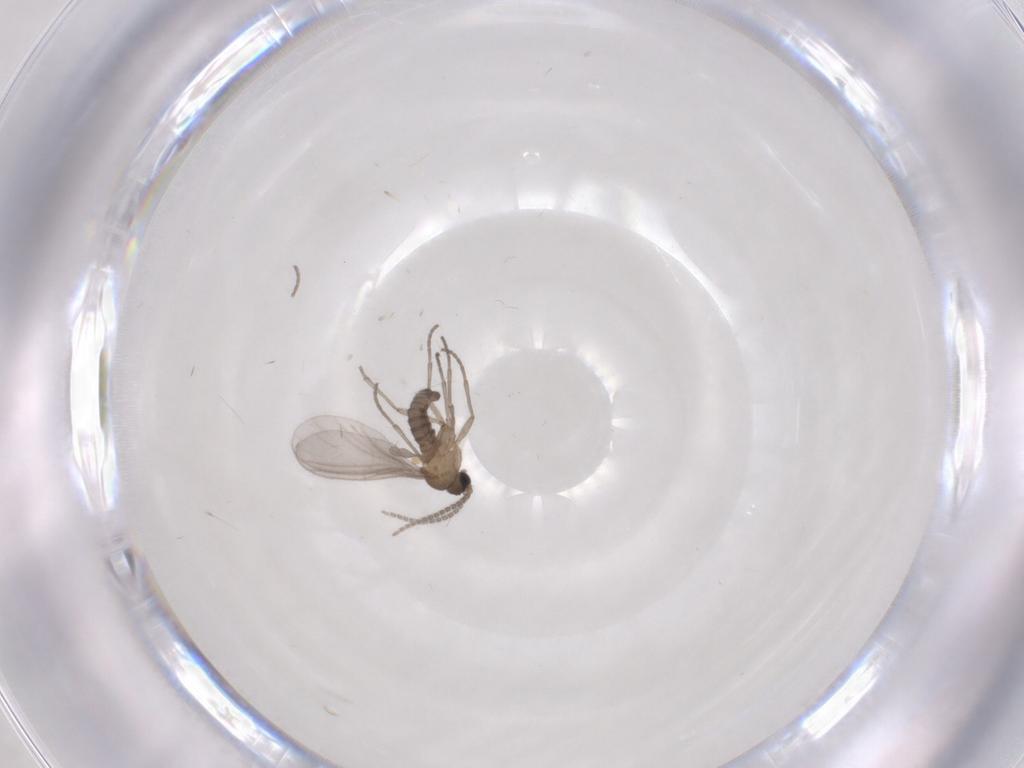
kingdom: Animalia
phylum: Arthropoda
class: Insecta
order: Diptera
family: Sciaridae
